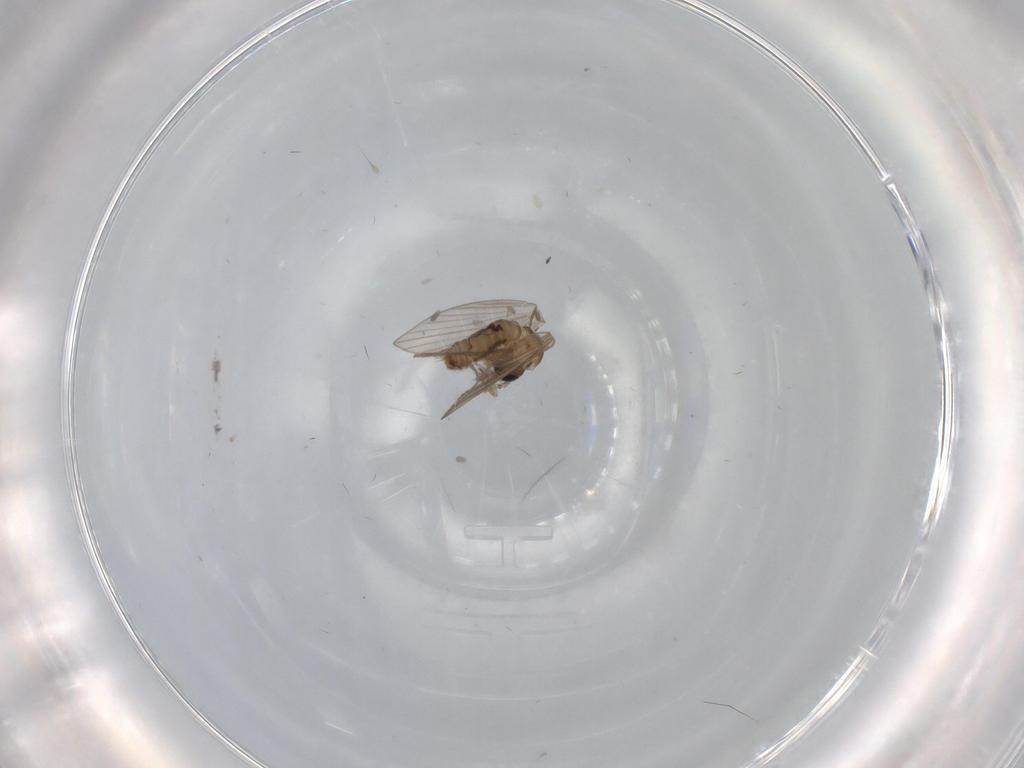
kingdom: Animalia
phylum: Arthropoda
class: Insecta
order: Diptera
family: Psychodidae
